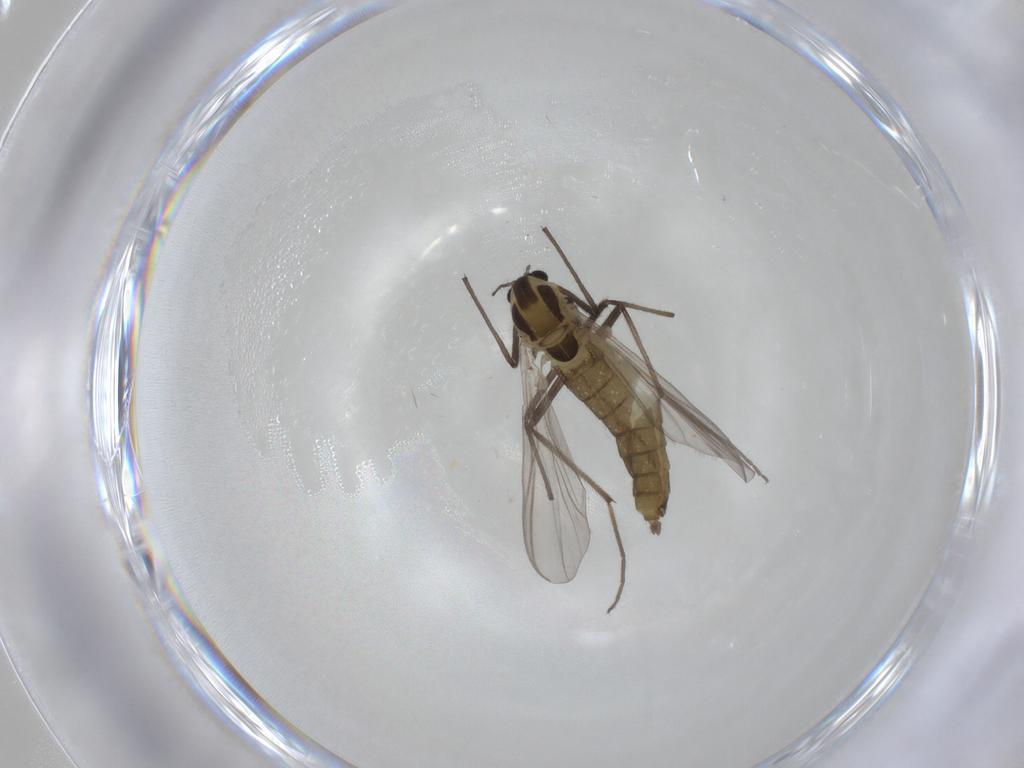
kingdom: Animalia
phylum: Arthropoda
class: Insecta
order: Diptera
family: Chironomidae
